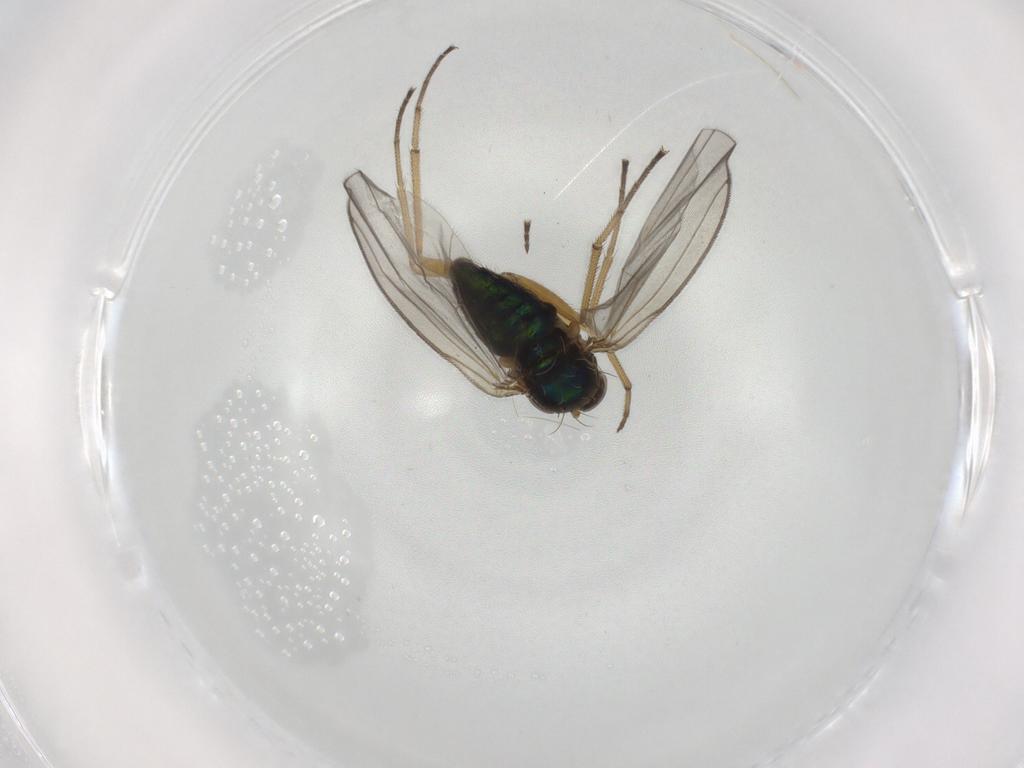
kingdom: Animalia
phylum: Arthropoda
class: Insecta
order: Diptera
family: Dolichopodidae
